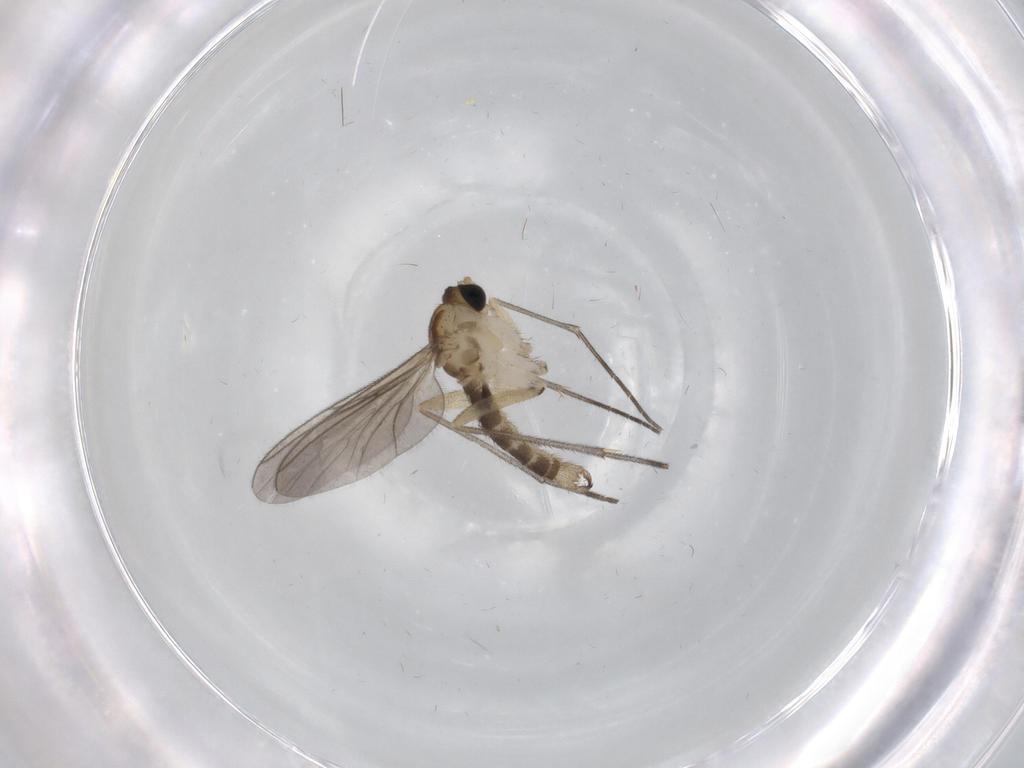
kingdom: Animalia
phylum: Arthropoda
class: Insecta
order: Diptera
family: Sciaridae
